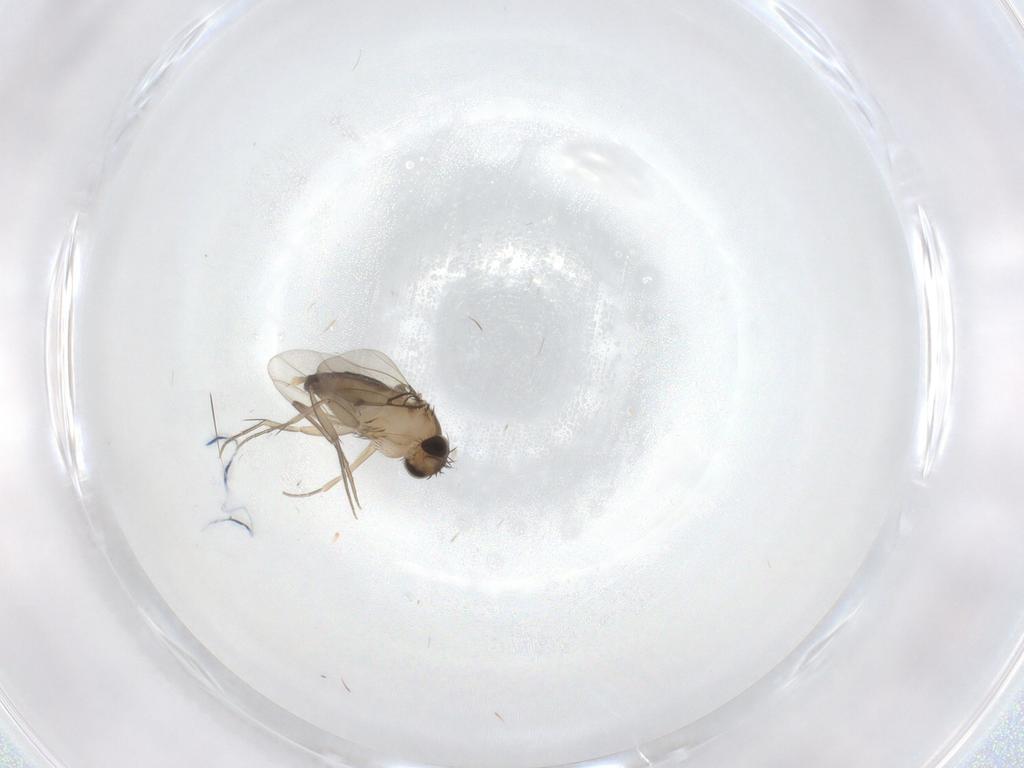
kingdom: Animalia
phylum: Arthropoda
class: Insecta
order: Diptera
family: Phoridae
